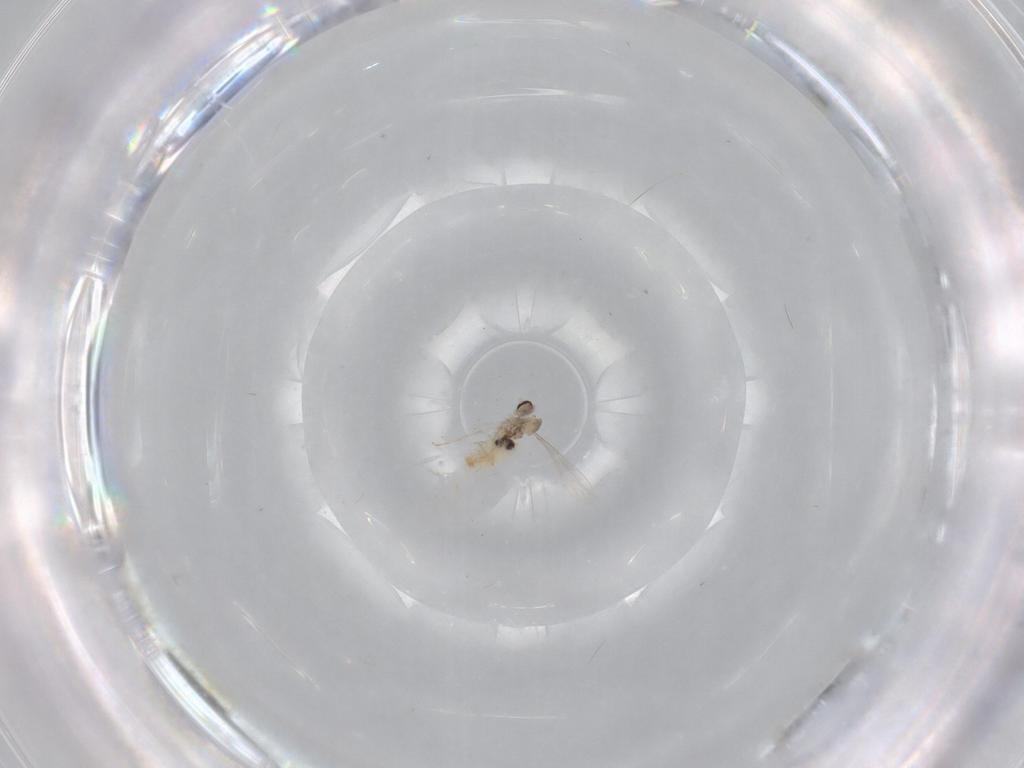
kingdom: Animalia
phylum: Arthropoda
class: Insecta
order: Diptera
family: Cecidomyiidae
